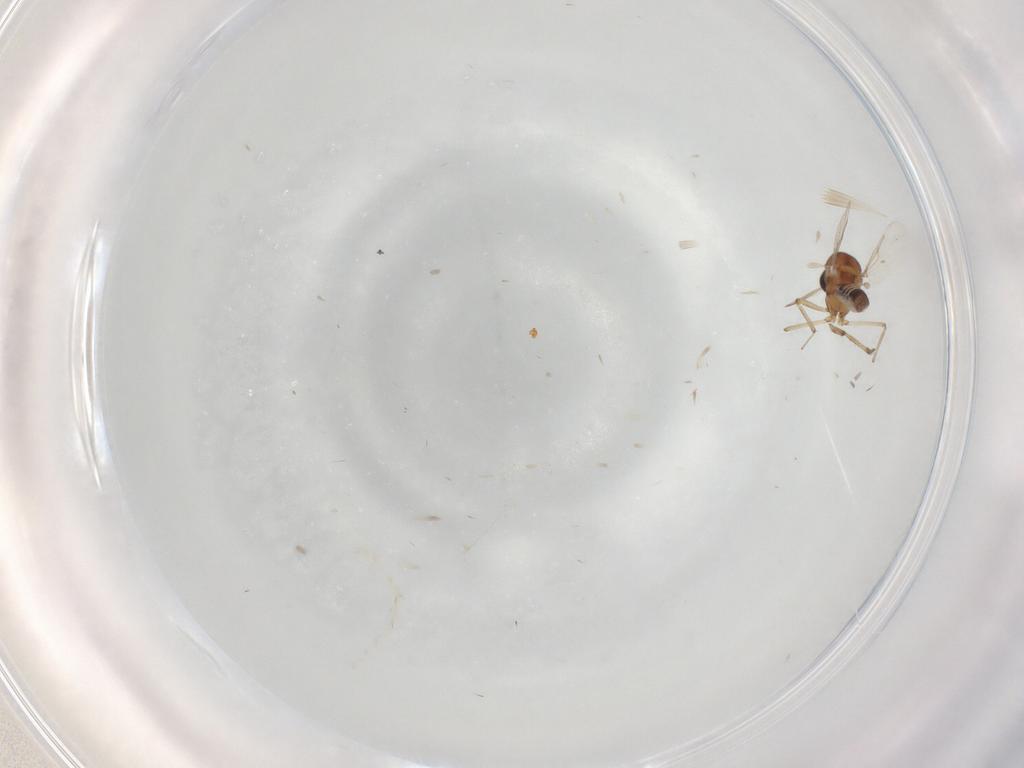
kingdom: Animalia
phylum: Arthropoda
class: Insecta
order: Diptera
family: Ceratopogonidae
